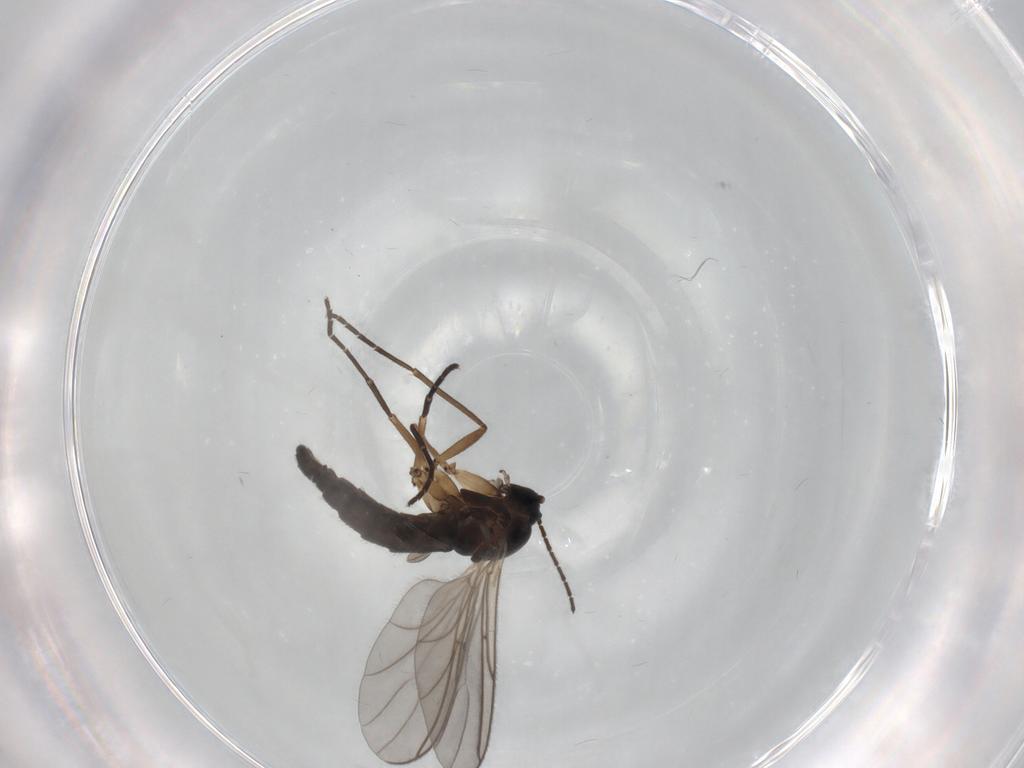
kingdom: Animalia
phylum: Arthropoda
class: Insecta
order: Diptera
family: Sciaridae
